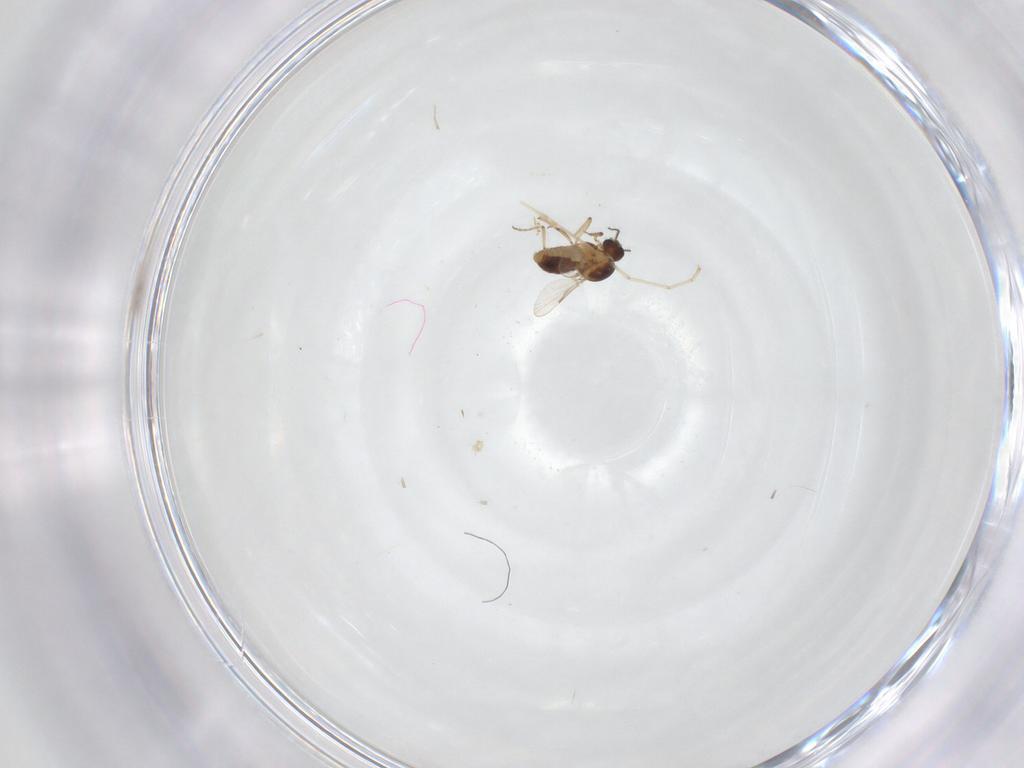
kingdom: Animalia
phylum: Arthropoda
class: Insecta
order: Diptera
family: Ceratopogonidae
